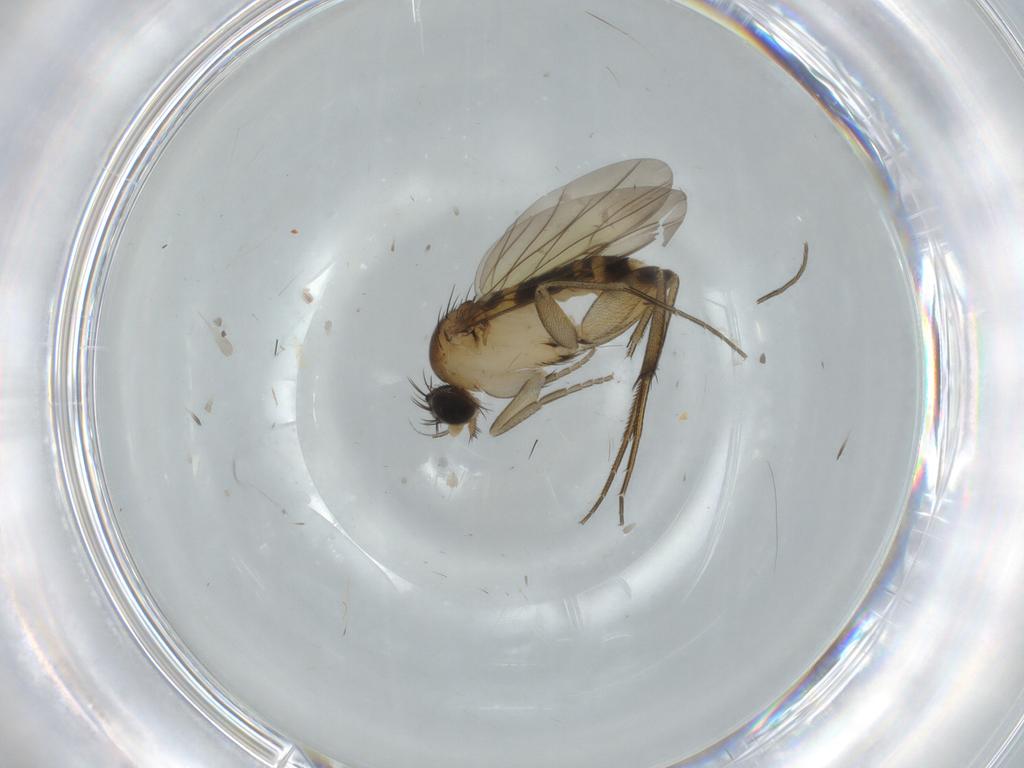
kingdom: Animalia
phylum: Arthropoda
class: Insecta
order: Diptera
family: Phoridae
